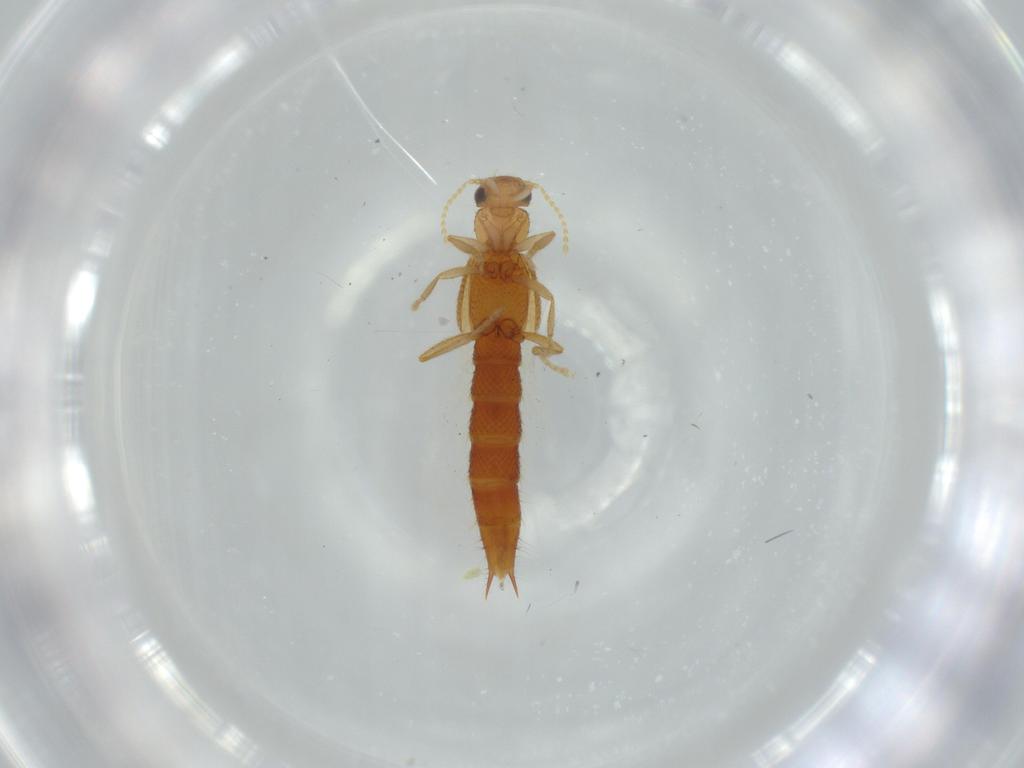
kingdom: Animalia
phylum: Arthropoda
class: Insecta
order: Coleoptera
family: Staphylinidae
